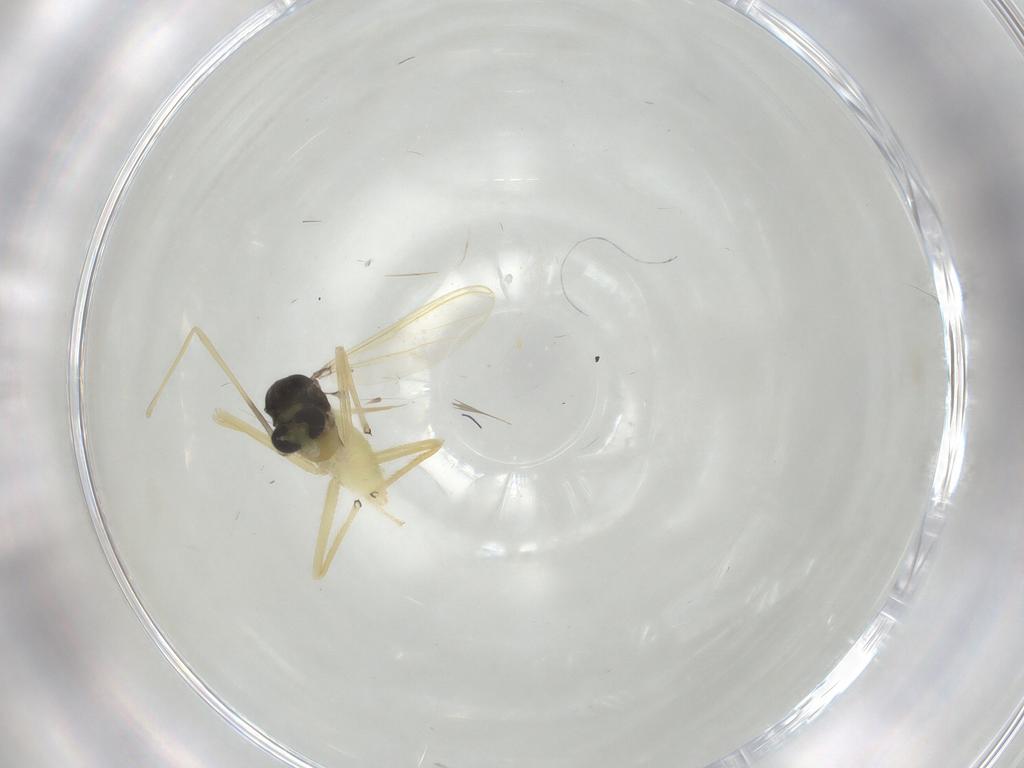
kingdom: Animalia
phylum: Arthropoda
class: Insecta
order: Diptera
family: Chironomidae
